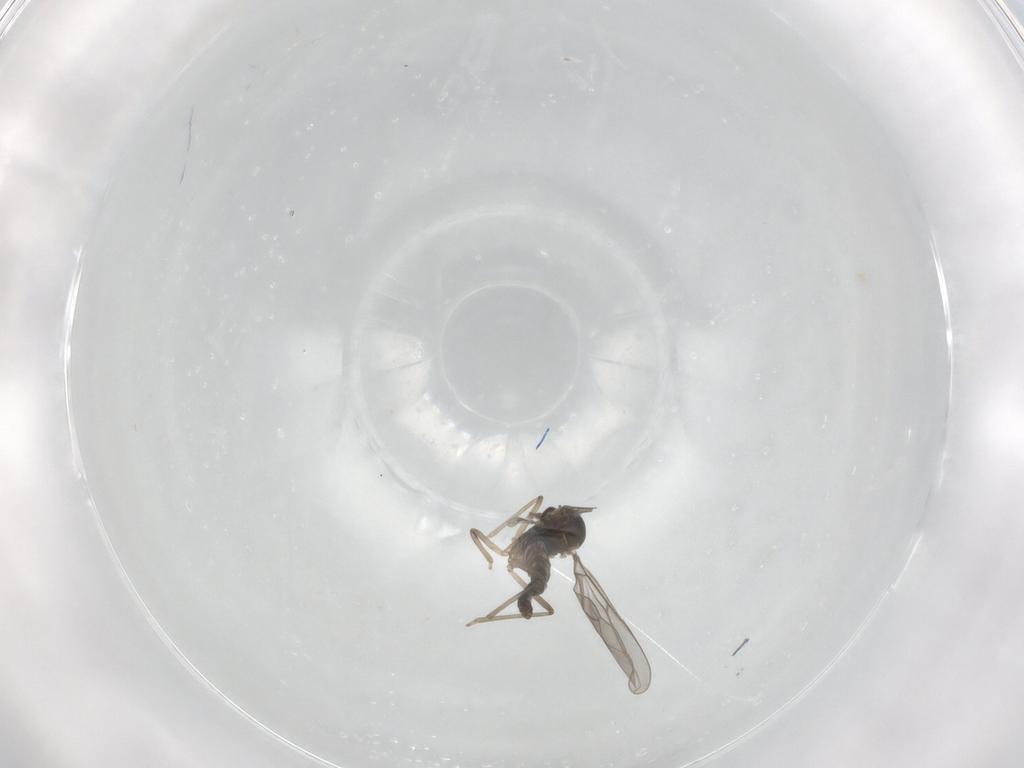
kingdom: Animalia
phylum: Arthropoda
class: Insecta
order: Diptera
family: Cecidomyiidae
